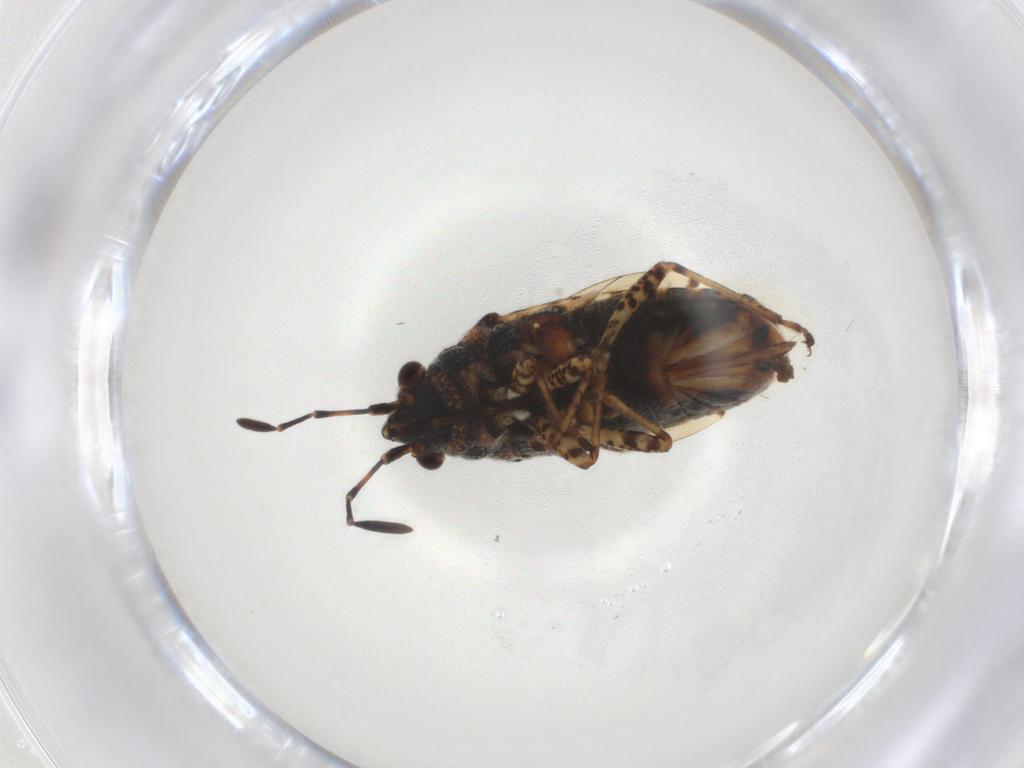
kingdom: Animalia
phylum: Arthropoda
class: Insecta
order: Hemiptera
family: Lygaeidae
